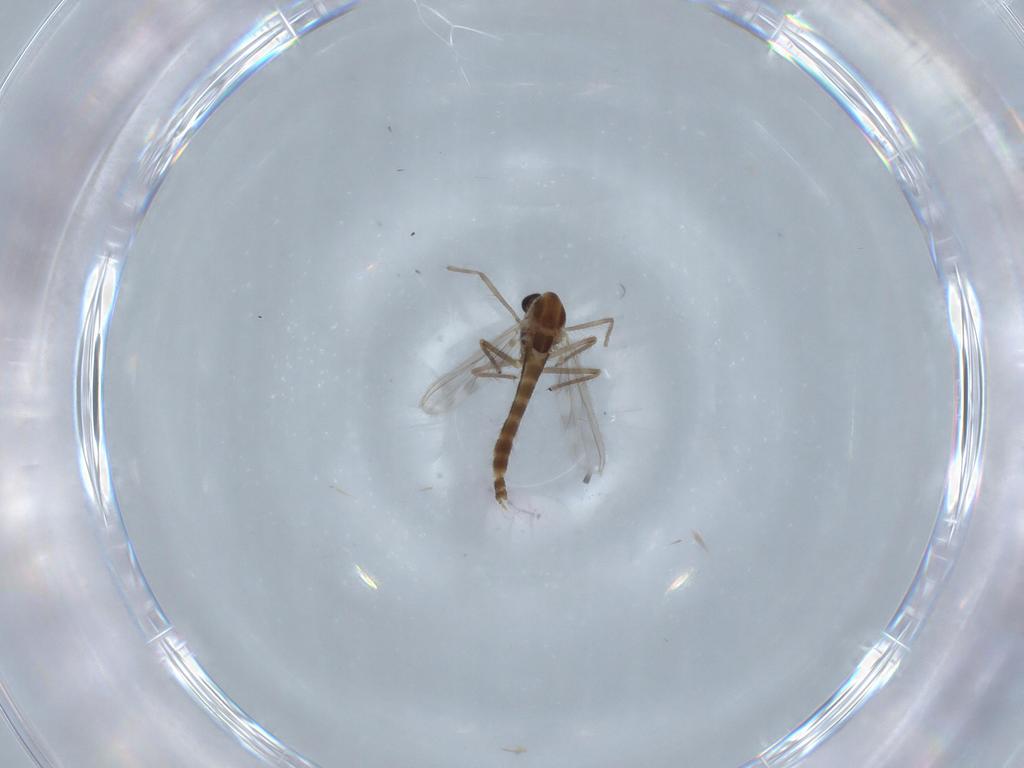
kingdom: Animalia
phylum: Arthropoda
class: Insecta
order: Diptera
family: Chironomidae
